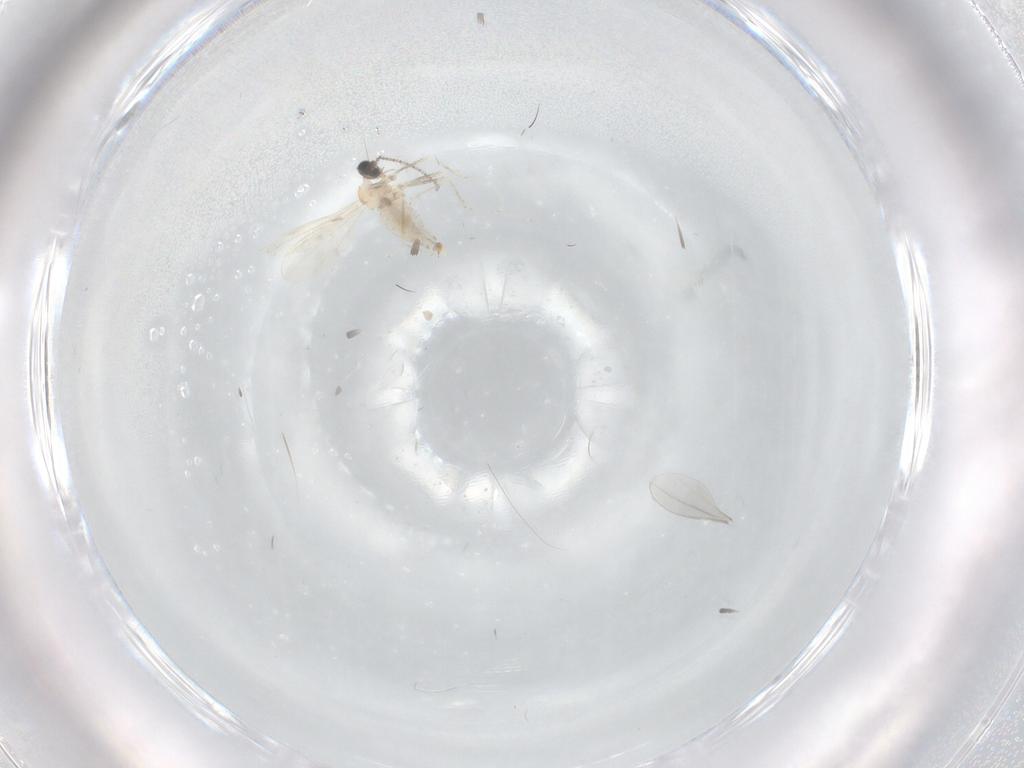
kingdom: Animalia
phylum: Arthropoda
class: Insecta
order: Diptera
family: Cecidomyiidae
